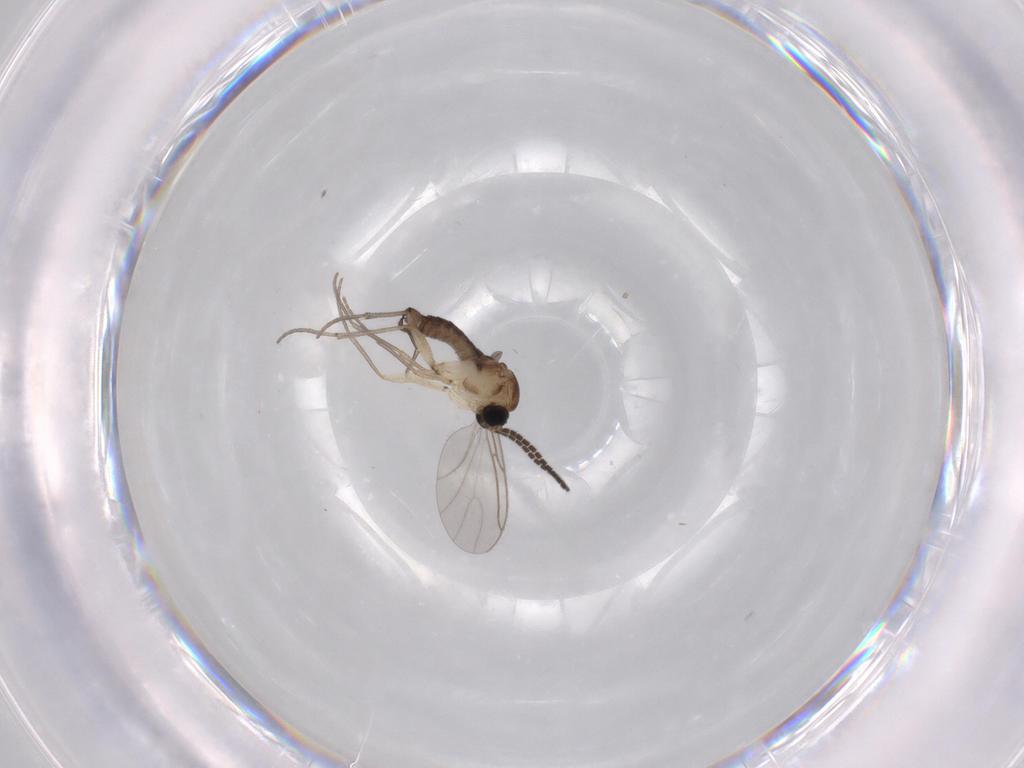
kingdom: Animalia
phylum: Arthropoda
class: Insecta
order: Diptera
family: Sciaridae
